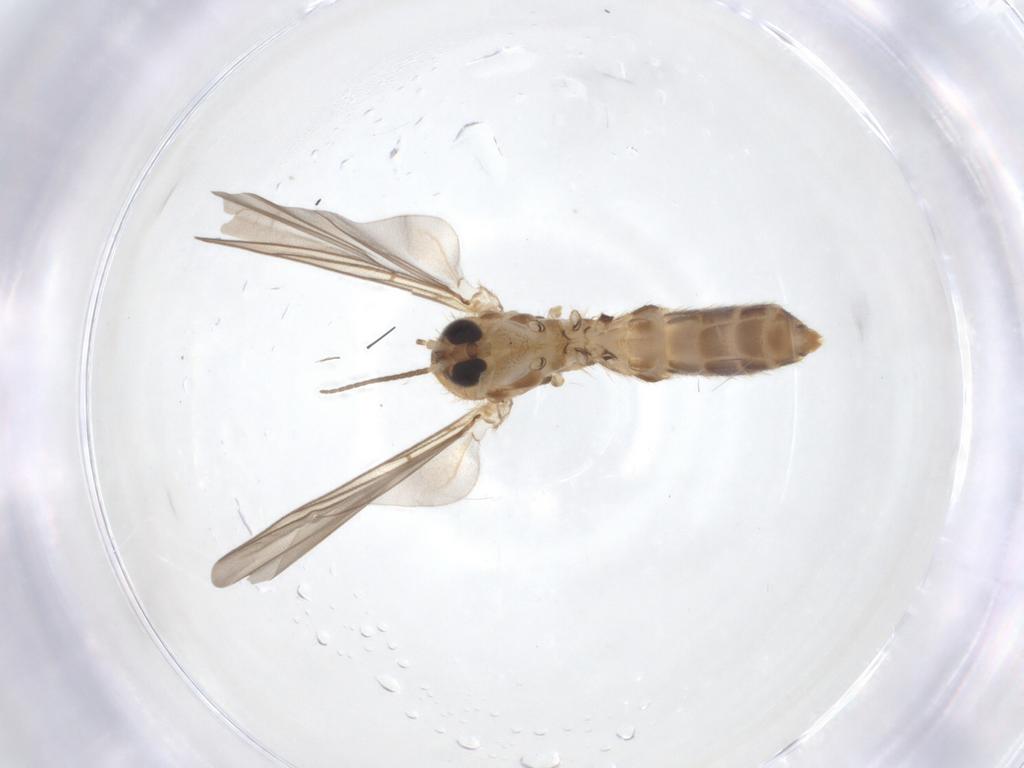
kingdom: Animalia
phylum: Arthropoda
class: Insecta
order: Diptera
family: Mycetophilidae
